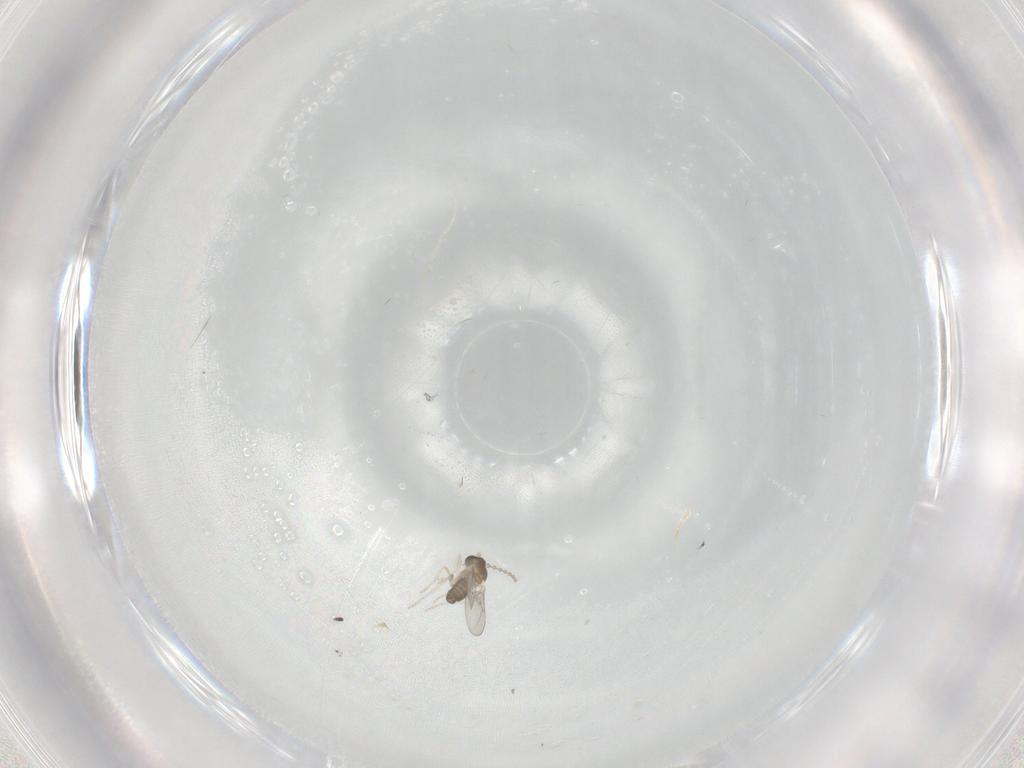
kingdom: Animalia
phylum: Arthropoda
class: Insecta
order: Diptera
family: Cecidomyiidae
